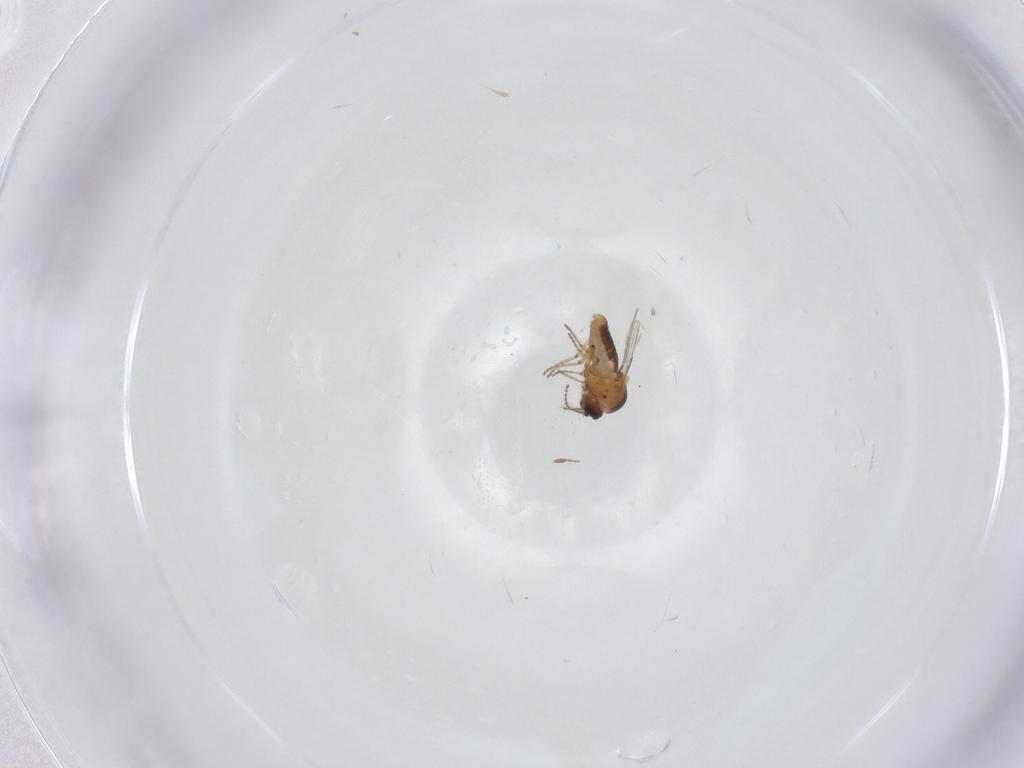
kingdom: Animalia
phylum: Arthropoda
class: Insecta
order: Diptera
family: Ceratopogonidae
